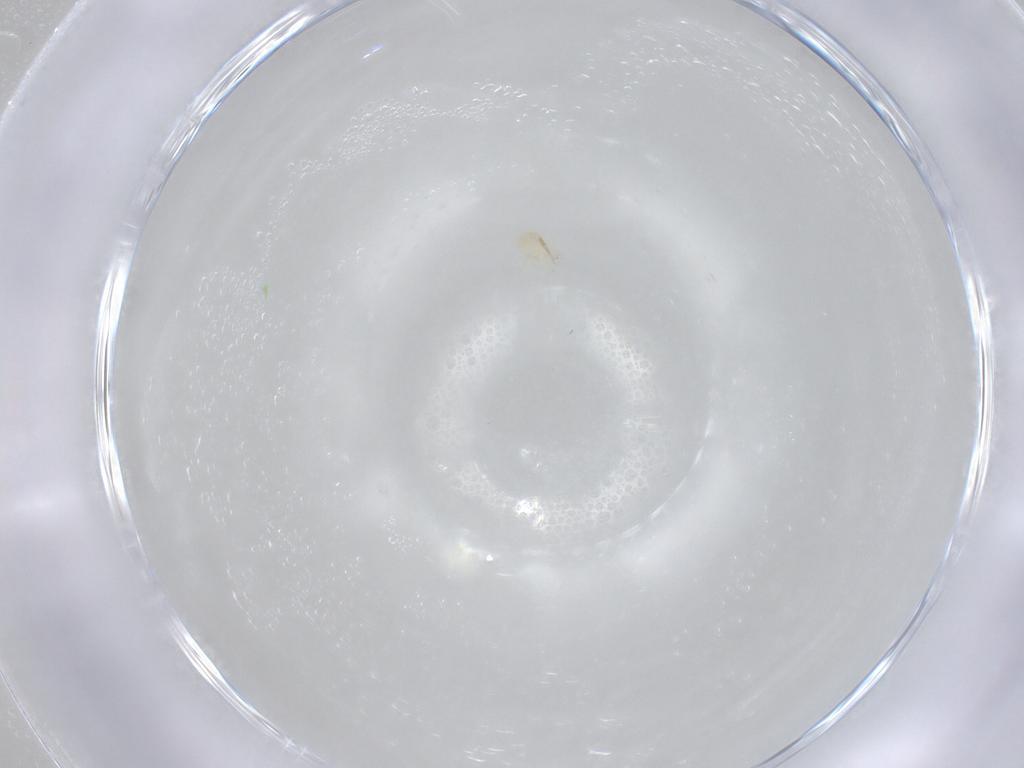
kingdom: Animalia
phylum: Arthropoda
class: Arachnida
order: Trombidiformes
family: Anystidae
